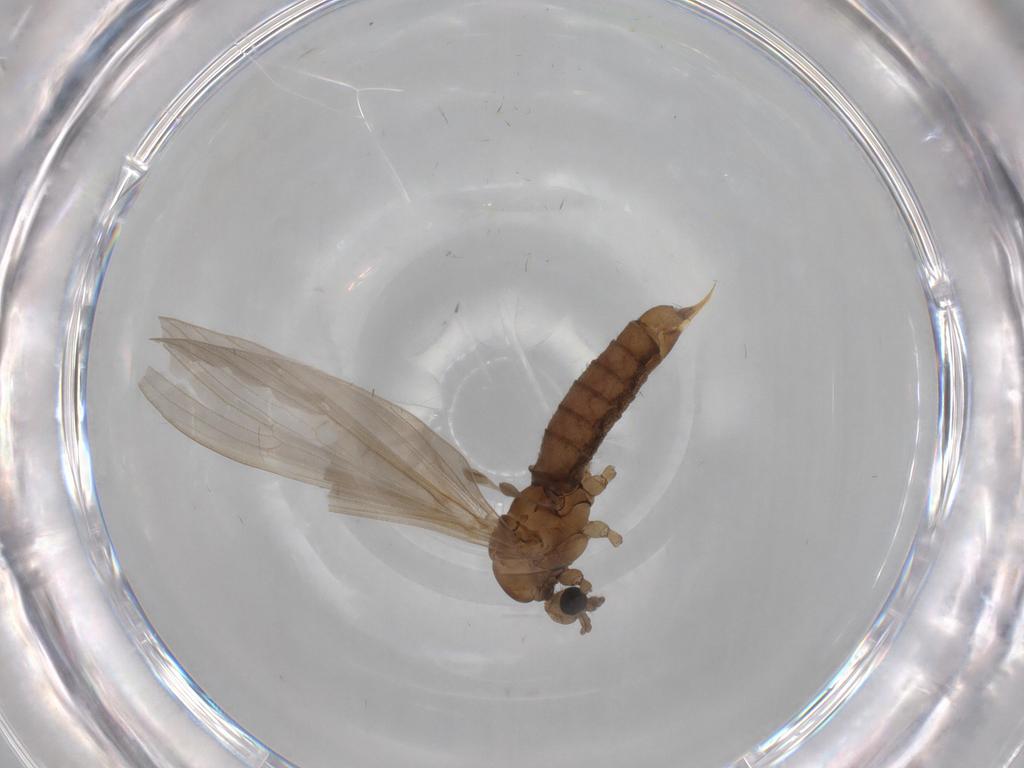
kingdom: Animalia
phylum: Arthropoda
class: Insecta
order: Diptera
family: Limoniidae
